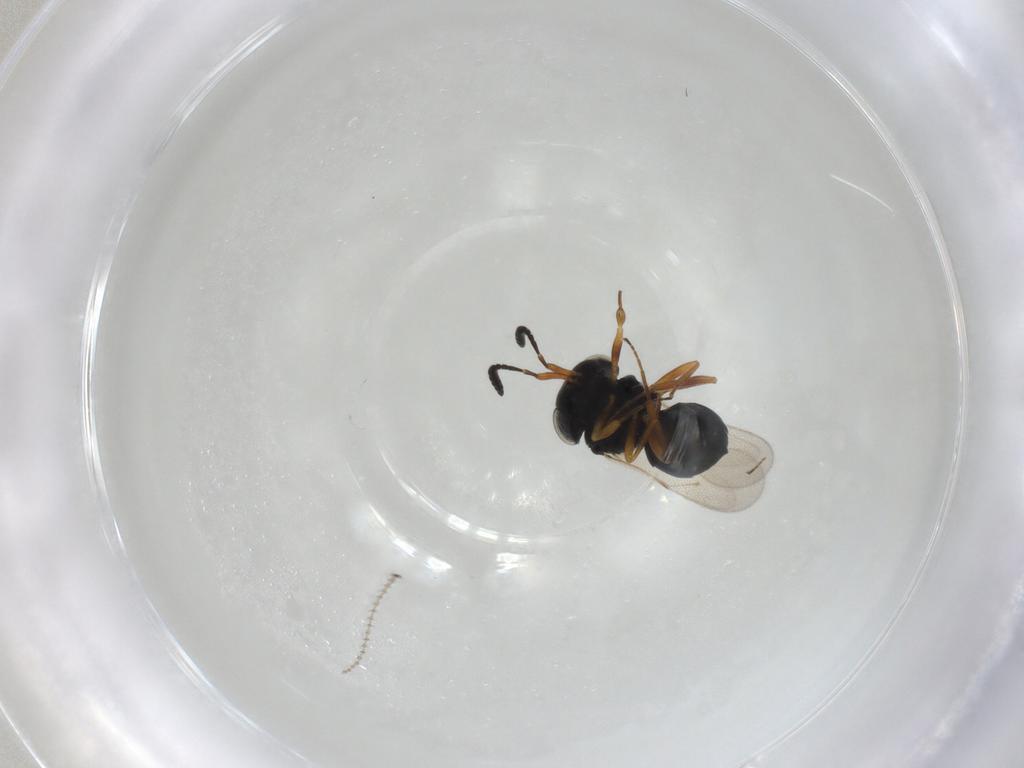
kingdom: Animalia
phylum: Arthropoda
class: Insecta
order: Hymenoptera
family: Scelionidae
